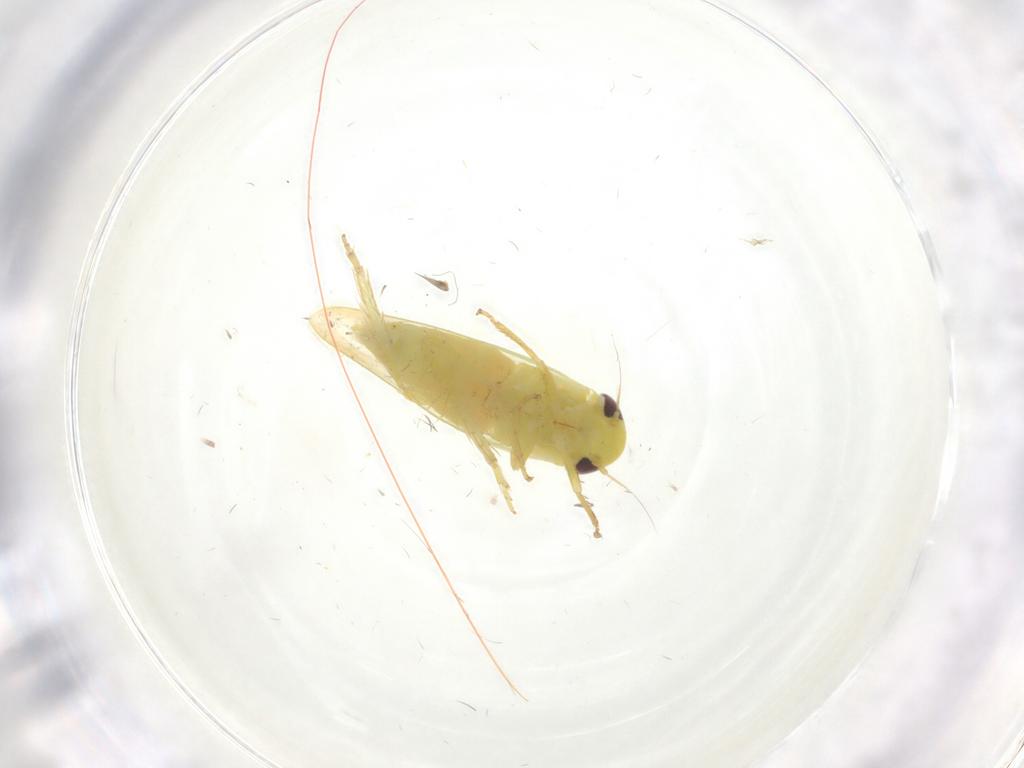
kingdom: Animalia
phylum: Arthropoda
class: Insecta
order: Hemiptera
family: Cicadellidae
